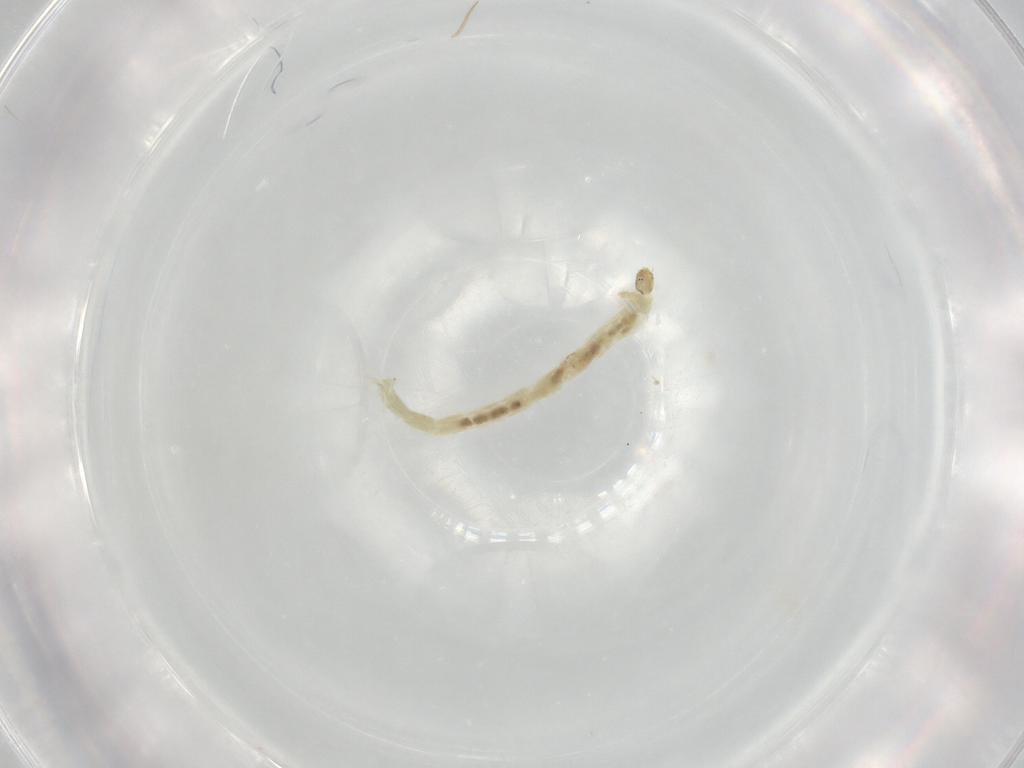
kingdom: Animalia
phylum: Arthropoda
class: Insecta
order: Diptera
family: Chironomidae
